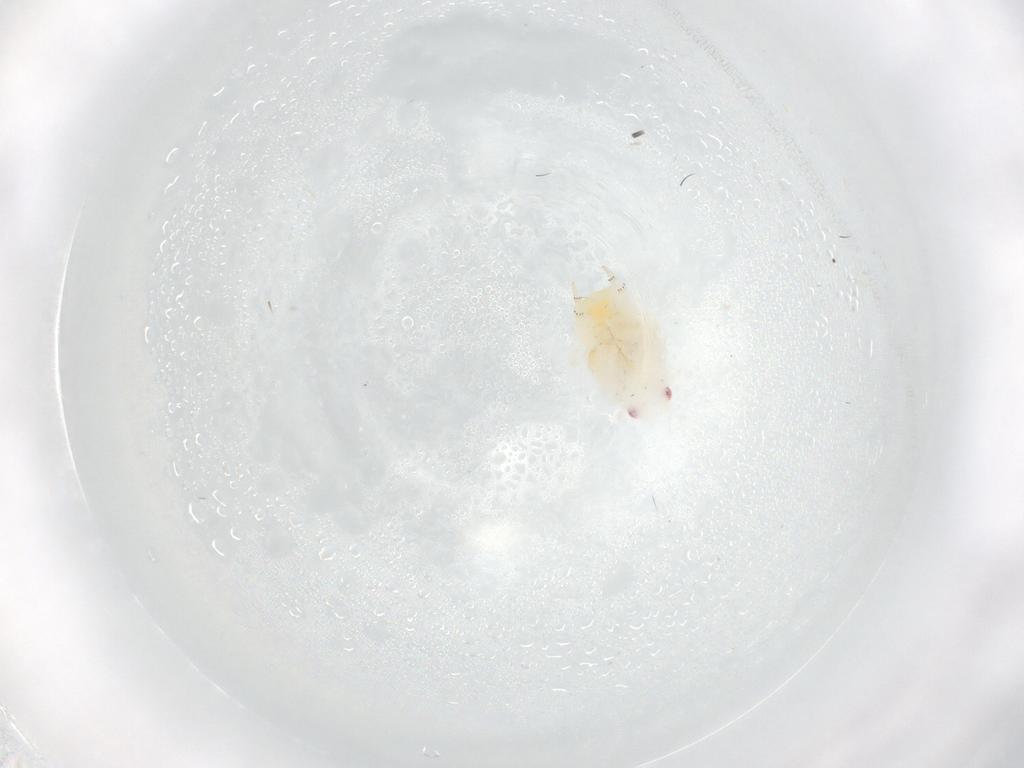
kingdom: Animalia
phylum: Arthropoda
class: Insecta
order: Hemiptera
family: Flatidae
